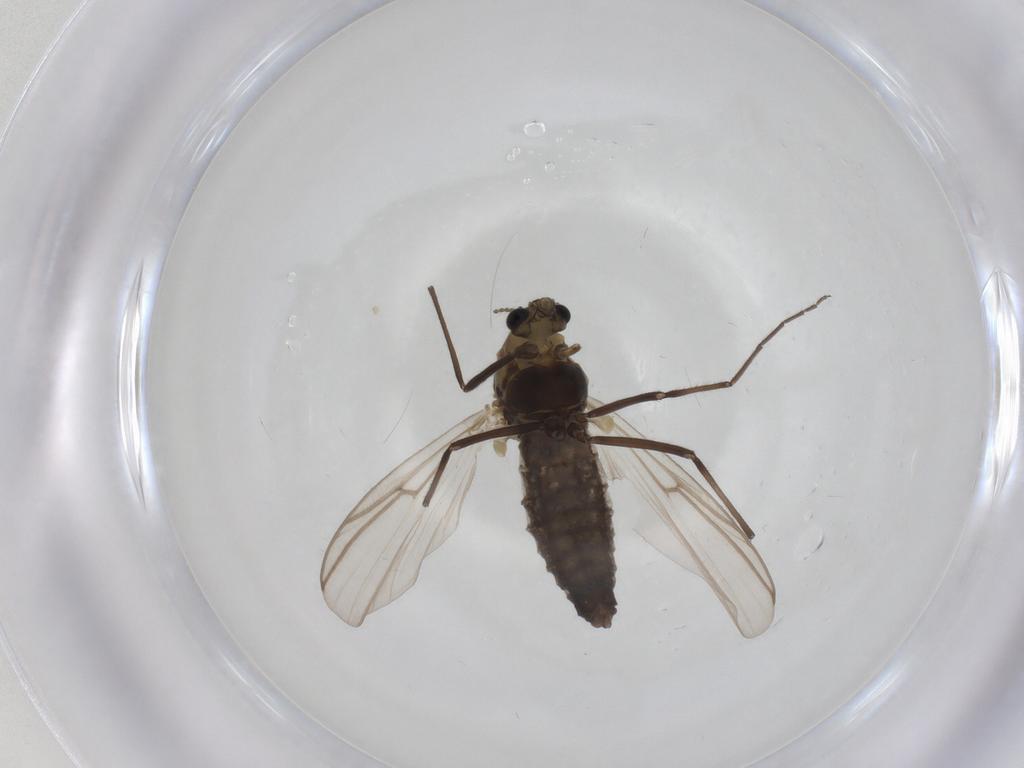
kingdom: Animalia
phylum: Arthropoda
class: Insecta
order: Diptera
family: Chironomidae
